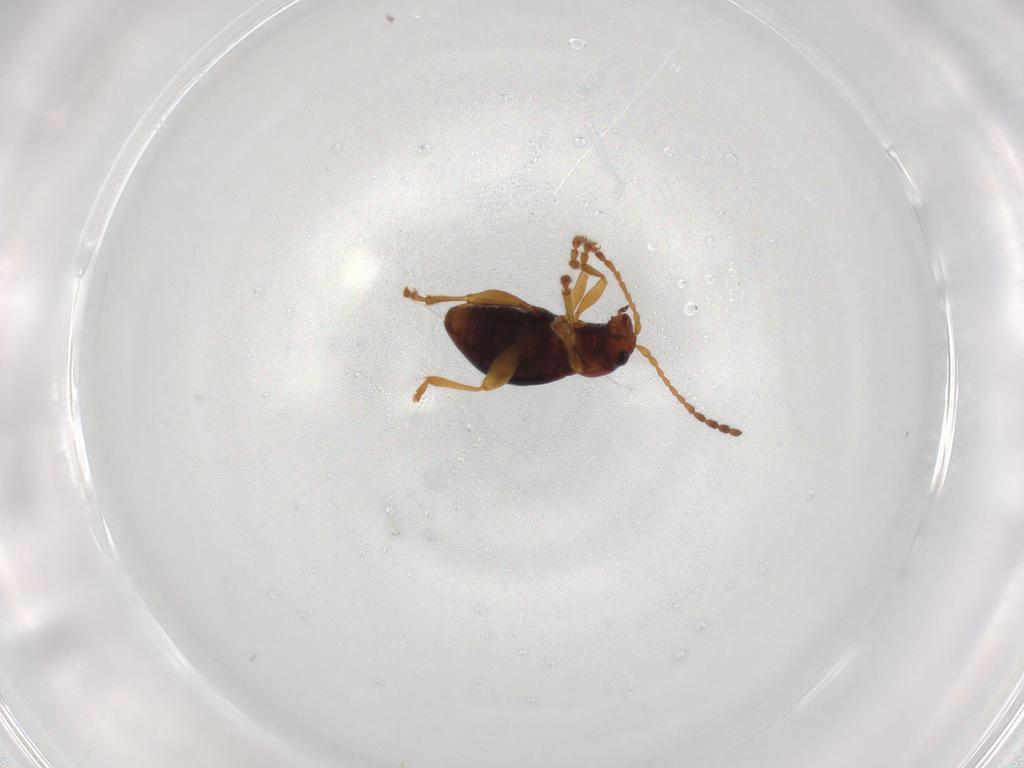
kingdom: Animalia
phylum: Arthropoda
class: Insecta
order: Coleoptera
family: Chrysomelidae
